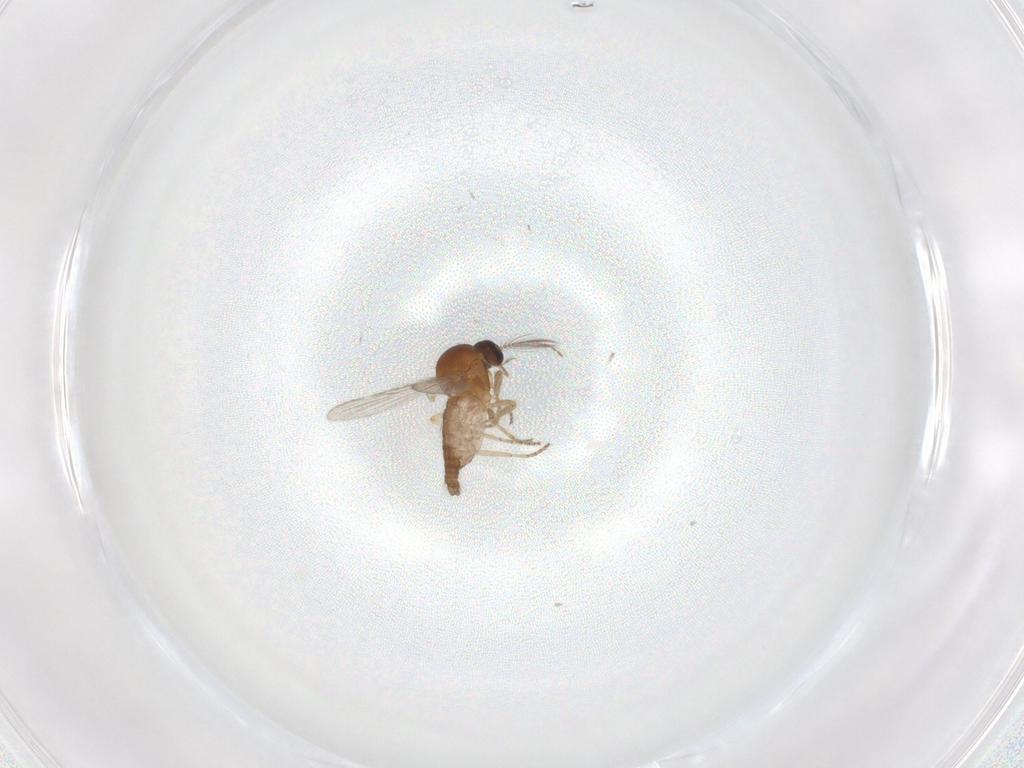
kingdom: Animalia
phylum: Arthropoda
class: Insecta
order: Diptera
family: Ceratopogonidae
